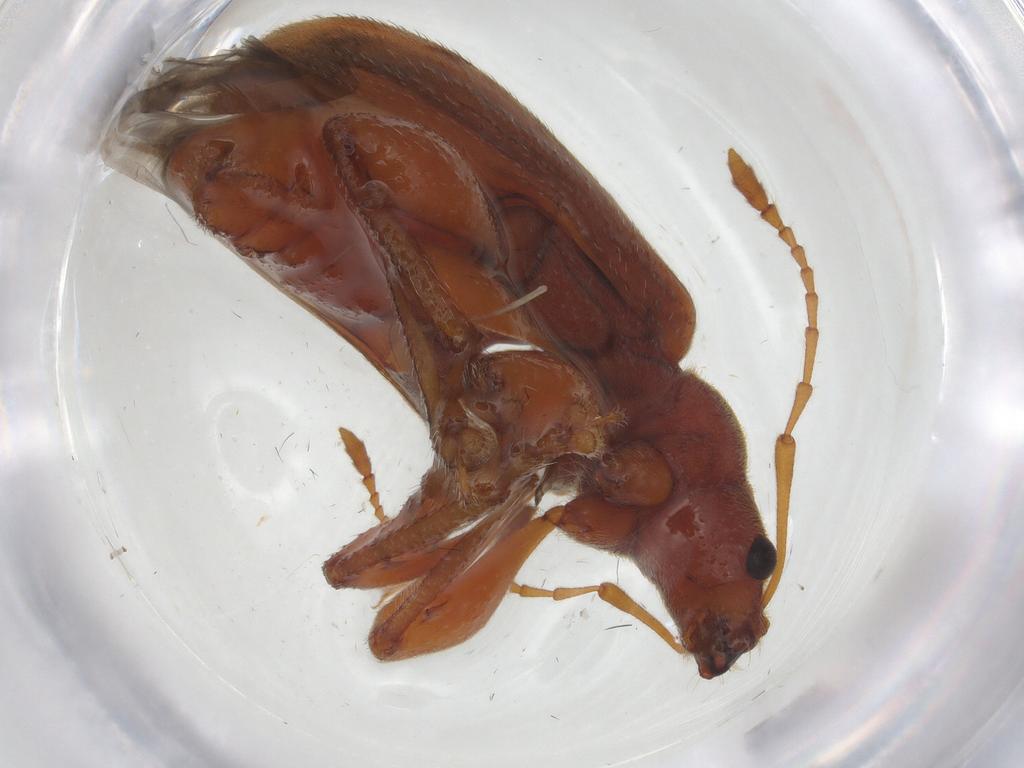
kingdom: Animalia
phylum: Arthropoda
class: Insecta
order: Coleoptera
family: Curculionidae
